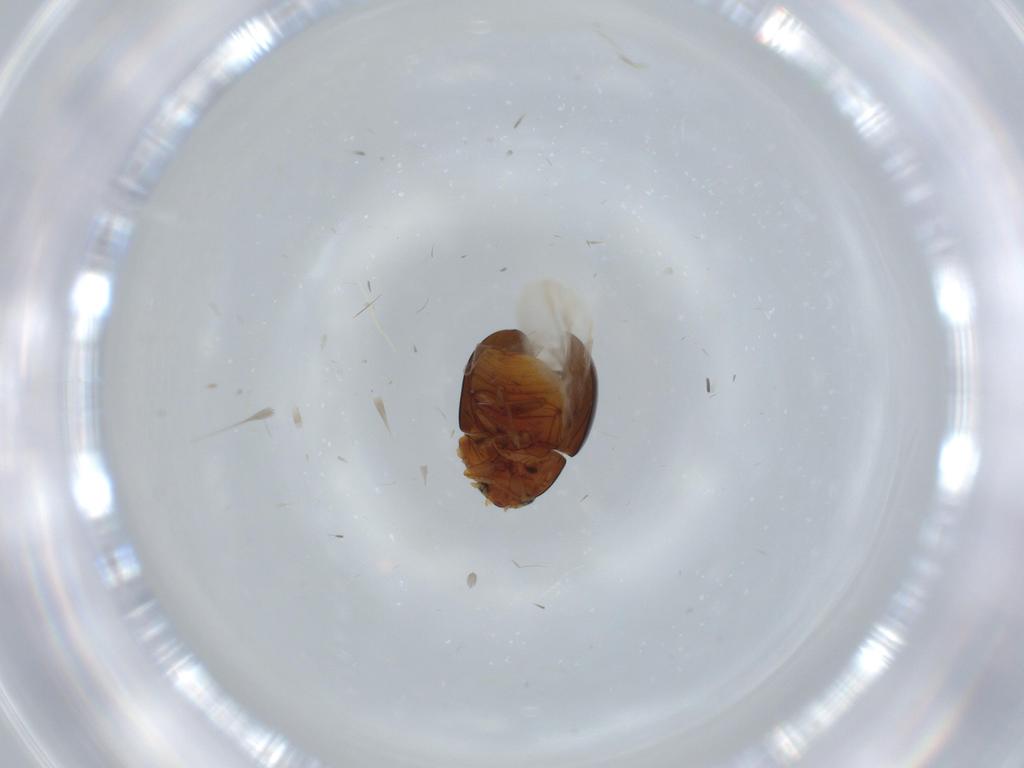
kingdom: Animalia
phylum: Arthropoda
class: Insecta
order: Coleoptera
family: Phalacridae
